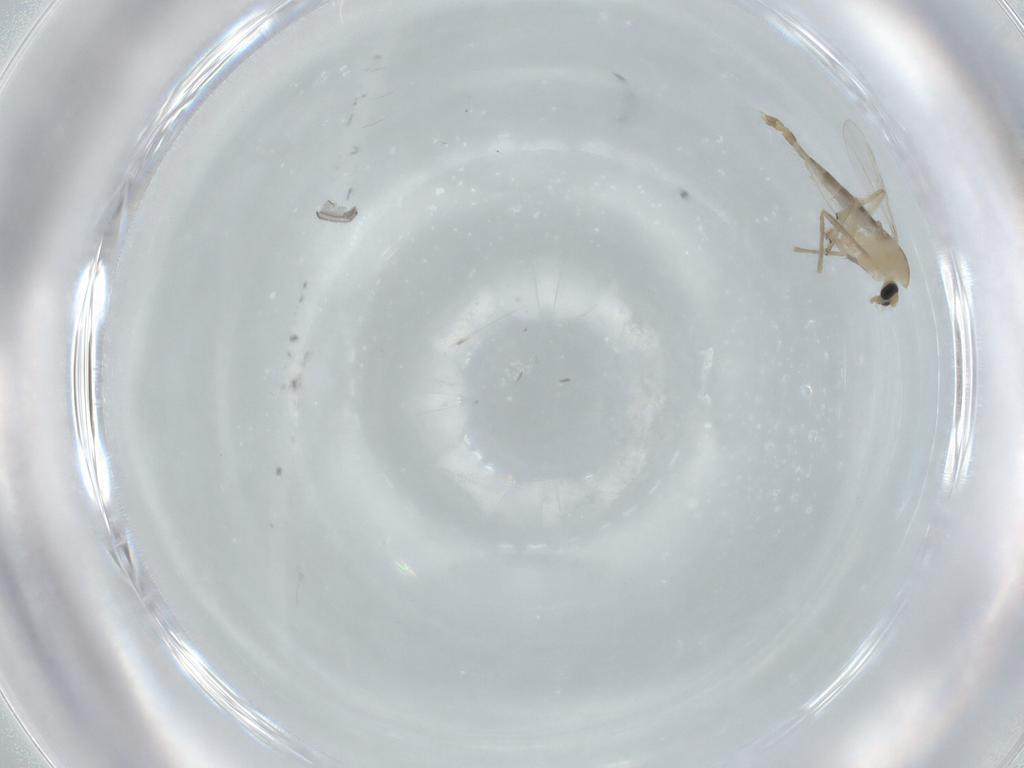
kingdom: Animalia
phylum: Arthropoda
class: Insecta
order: Diptera
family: Chironomidae
